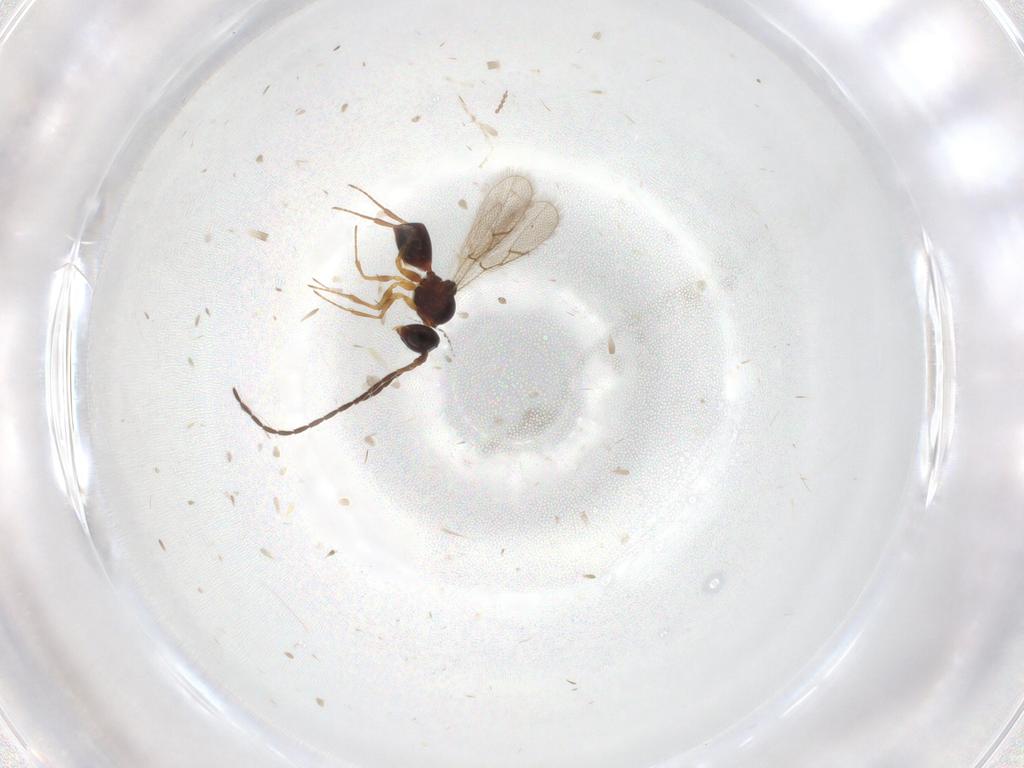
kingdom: Animalia
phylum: Arthropoda
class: Insecta
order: Hymenoptera
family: Figitidae
